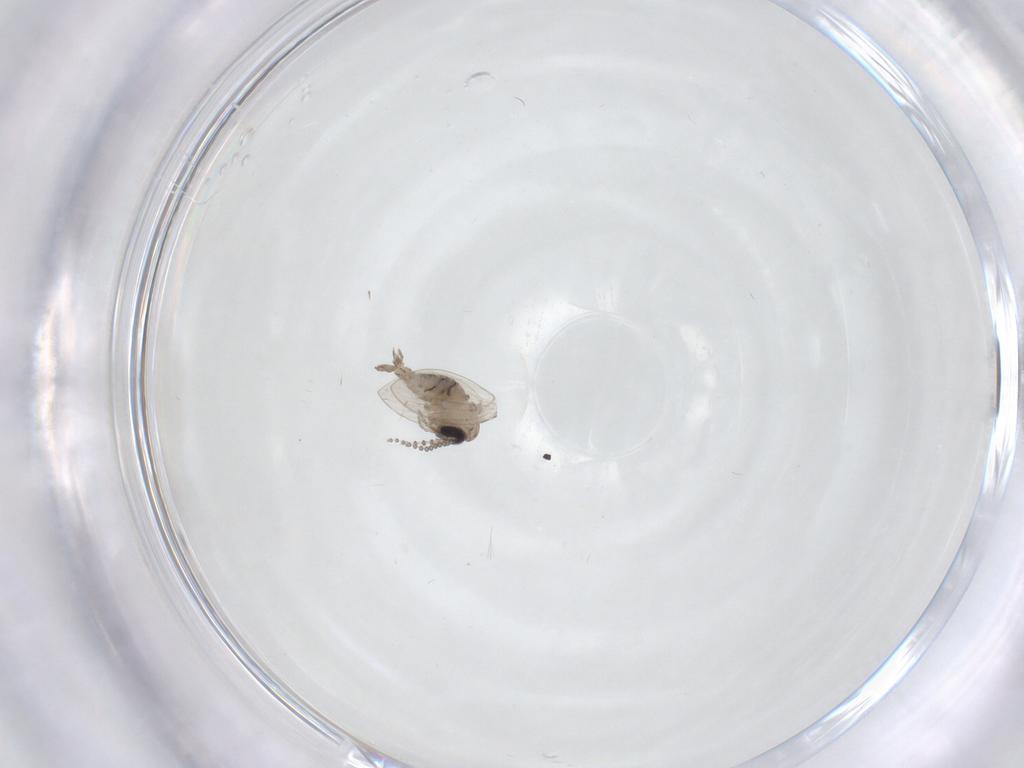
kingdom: Animalia
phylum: Arthropoda
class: Insecta
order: Diptera
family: Psychodidae
